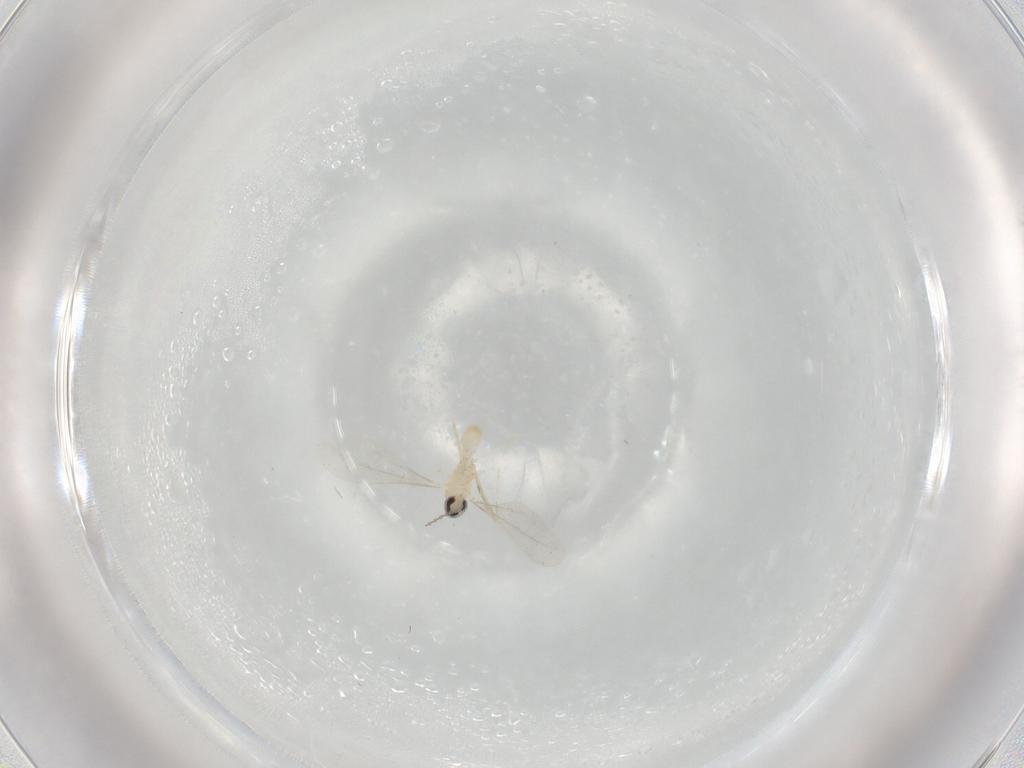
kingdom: Animalia
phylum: Arthropoda
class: Insecta
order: Diptera
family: Cecidomyiidae
